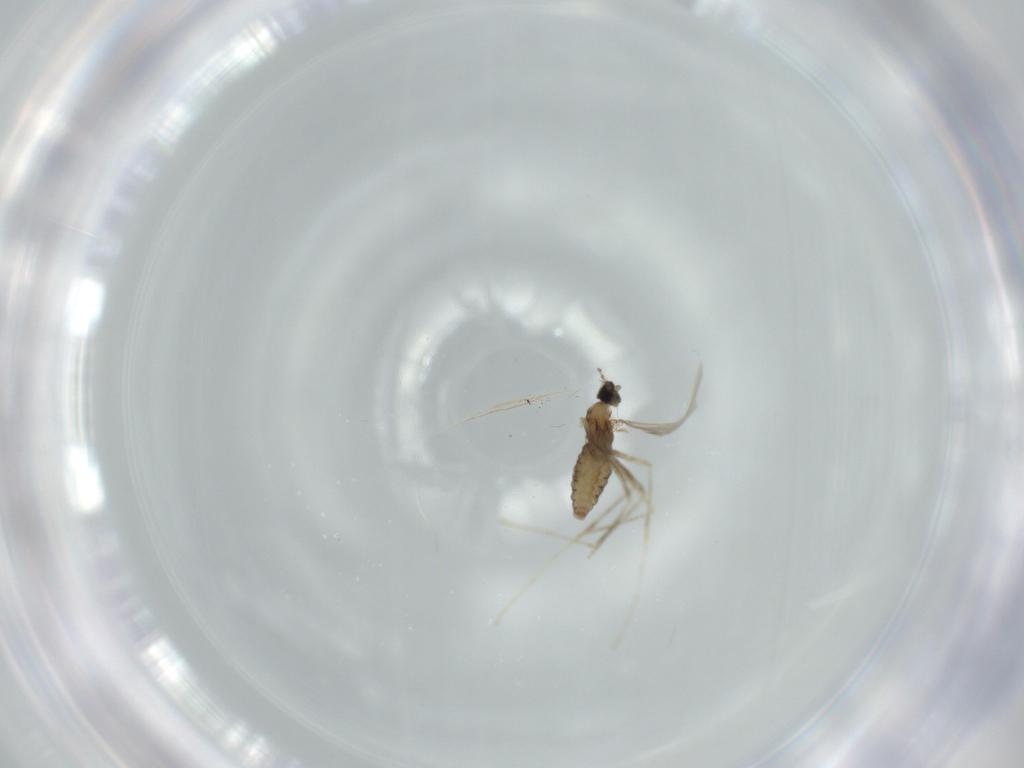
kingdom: Animalia
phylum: Arthropoda
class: Insecta
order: Diptera
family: Cecidomyiidae
